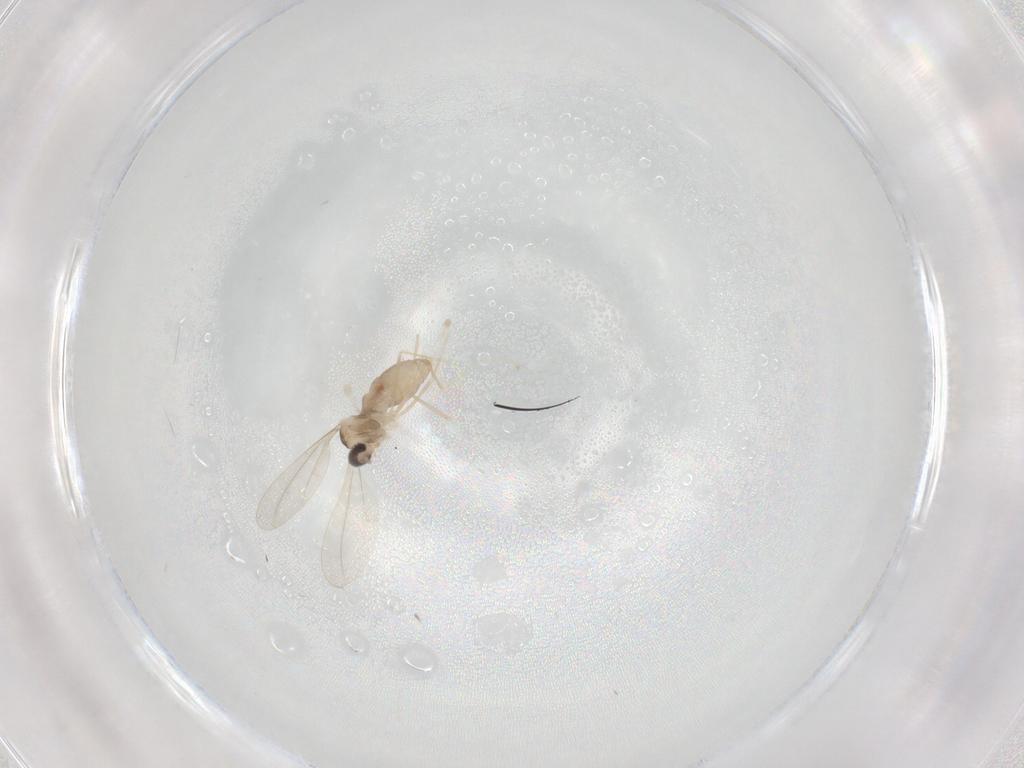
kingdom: Animalia
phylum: Arthropoda
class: Insecta
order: Diptera
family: Cecidomyiidae
